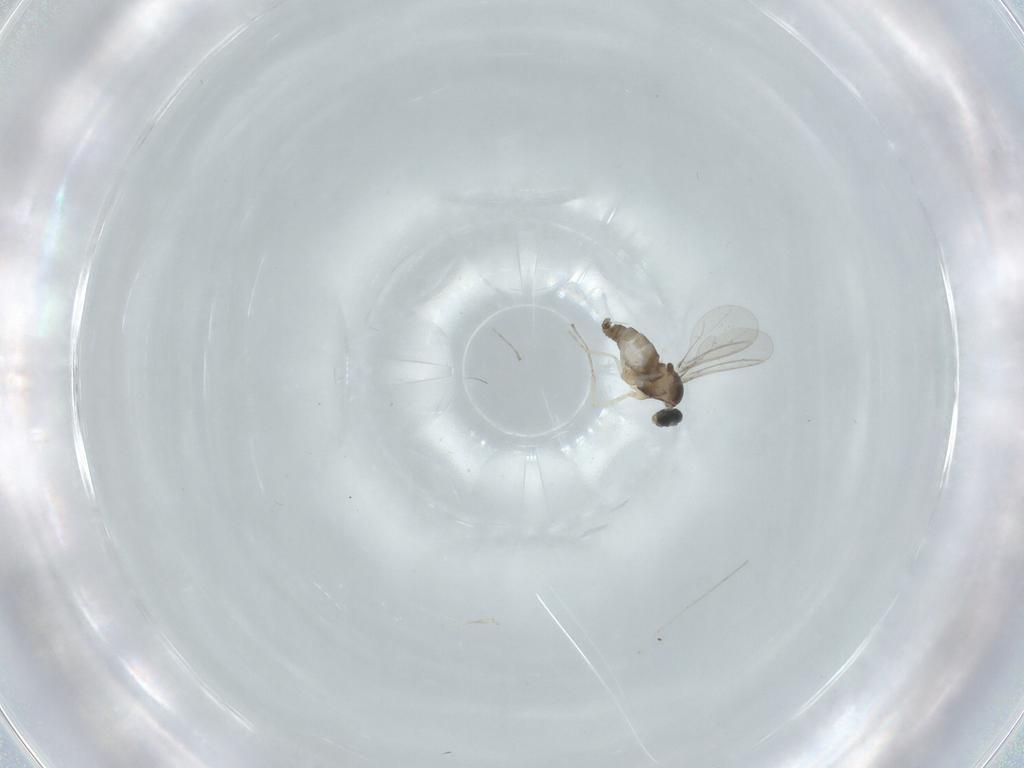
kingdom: Animalia
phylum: Arthropoda
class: Insecta
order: Diptera
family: Cecidomyiidae
